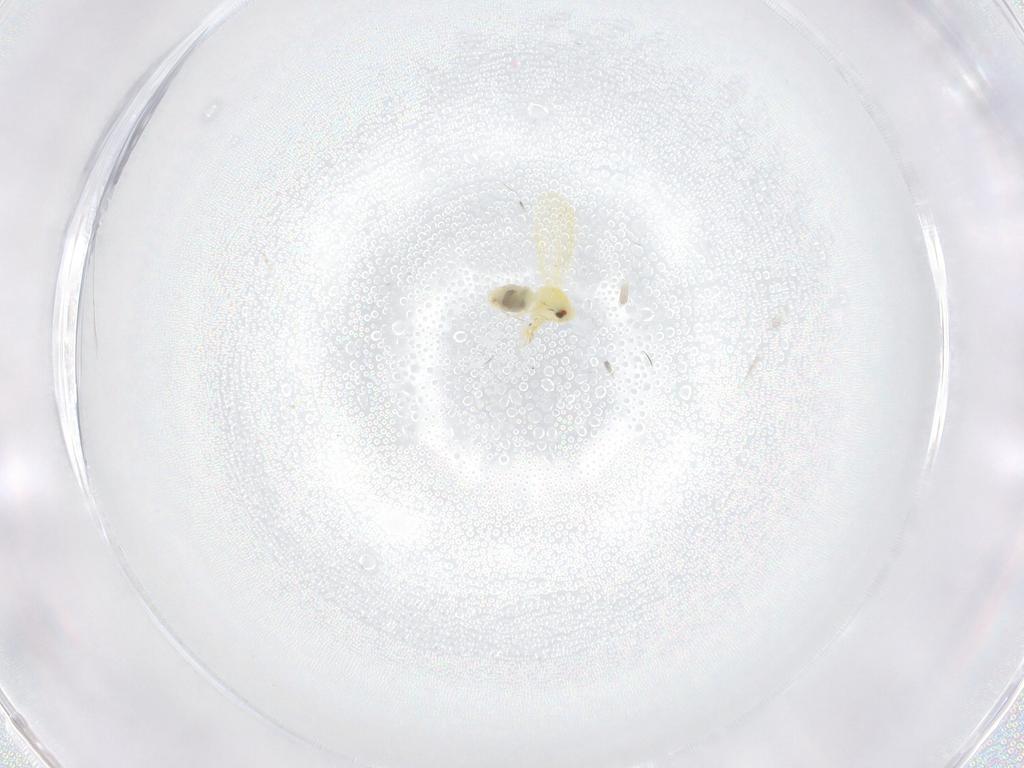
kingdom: Animalia
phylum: Arthropoda
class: Insecta
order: Hemiptera
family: Aleyrodidae
